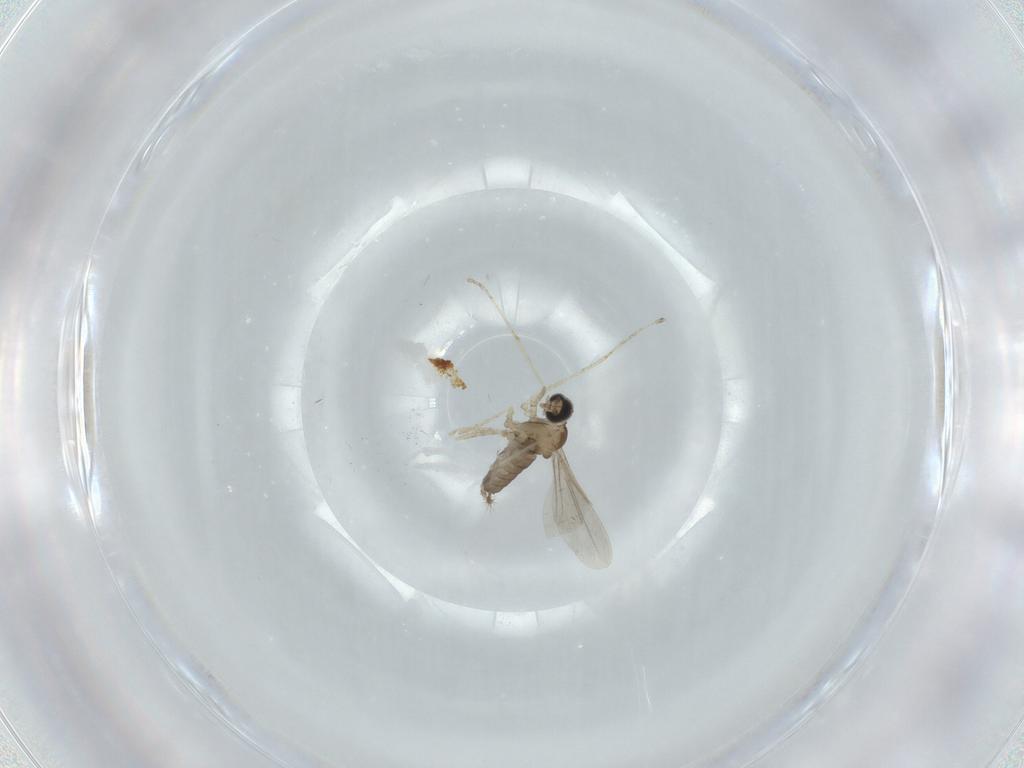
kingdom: Animalia
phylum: Arthropoda
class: Insecta
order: Diptera
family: Cecidomyiidae
